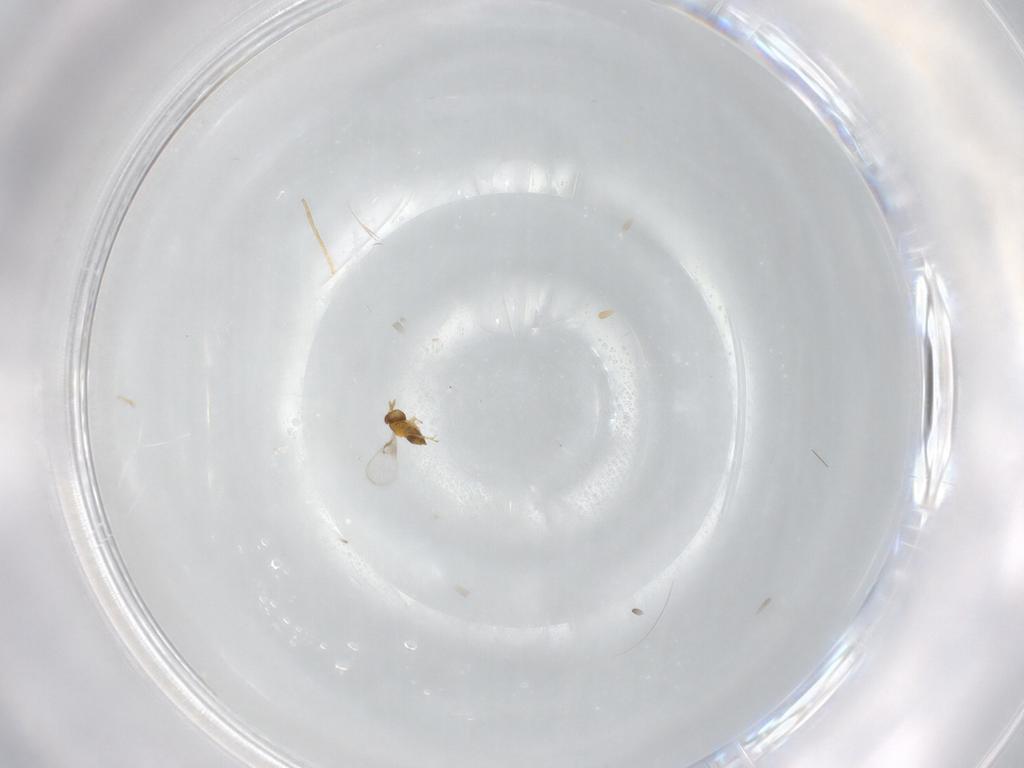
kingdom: Animalia
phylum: Arthropoda
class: Insecta
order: Hymenoptera
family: Trichogrammatidae
